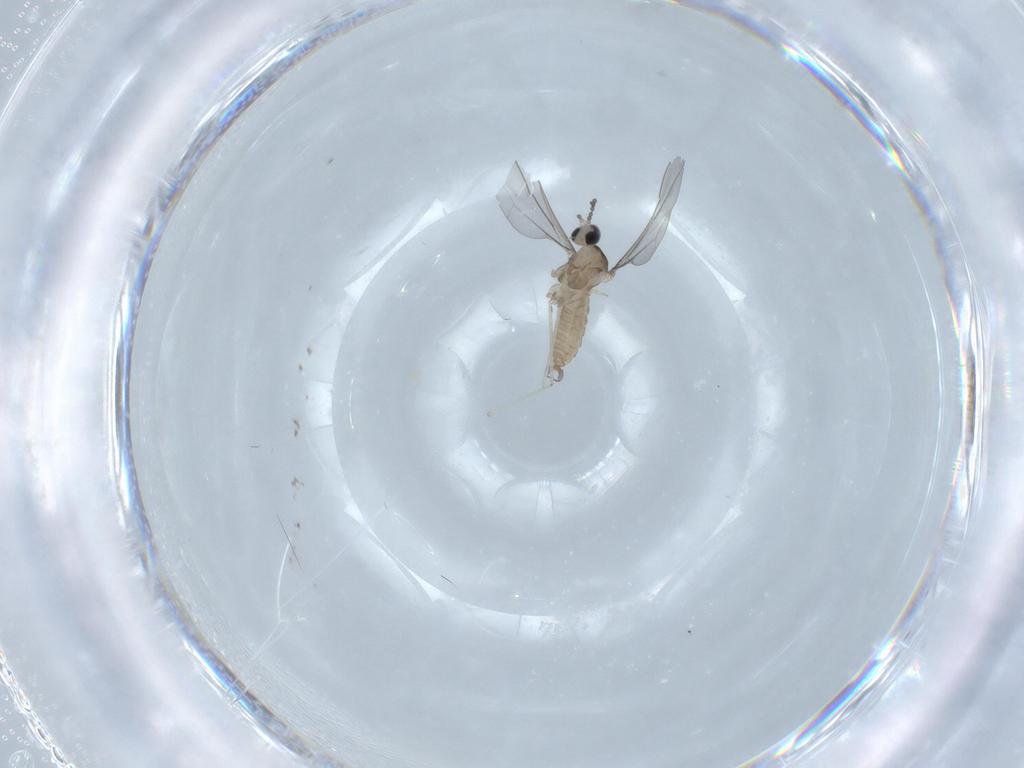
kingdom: Animalia
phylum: Arthropoda
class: Insecta
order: Diptera
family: Cecidomyiidae
